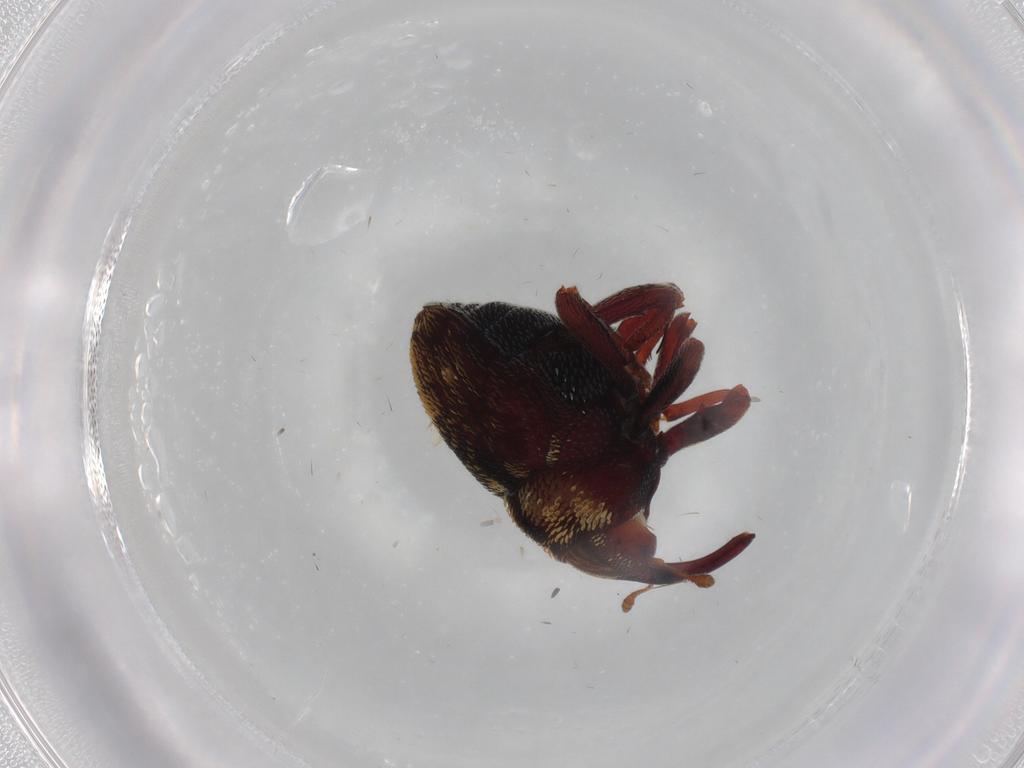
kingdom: Animalia
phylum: Arthropoda
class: Insecta
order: Coleoptera
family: Curculionidae
